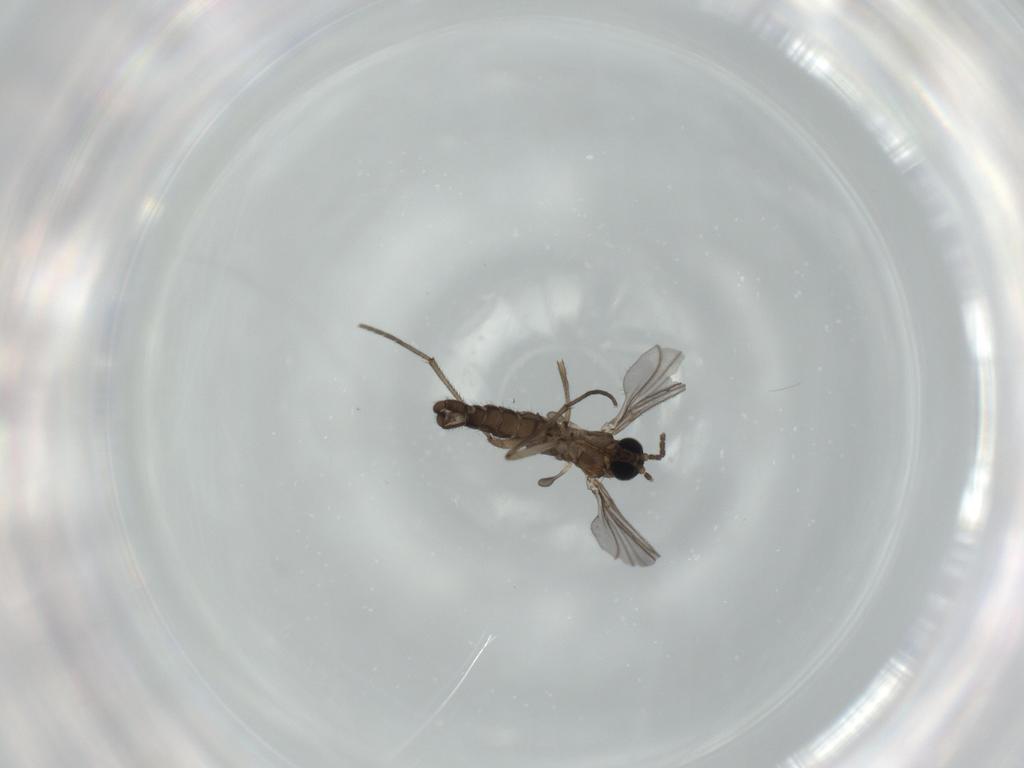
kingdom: Animalia
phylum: Arthropoda
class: Insecta
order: Diptera
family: Sciaridae
